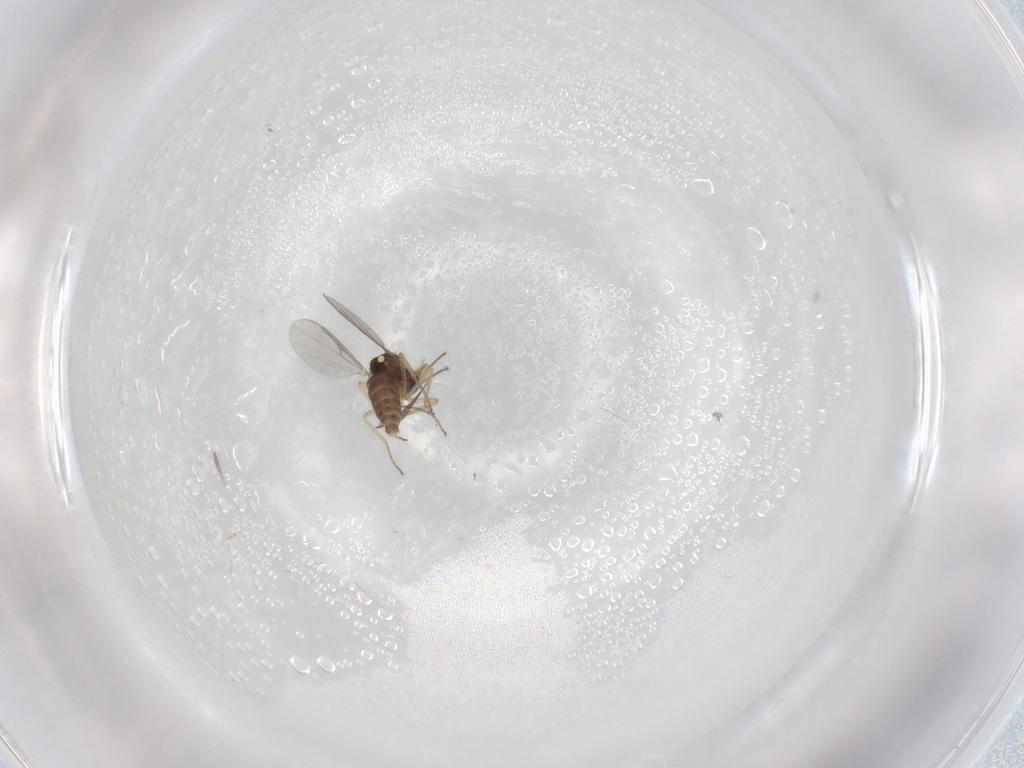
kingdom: Animalia
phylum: Arthropoda
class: Insecta
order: Diptera
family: Ceratopogonidae
